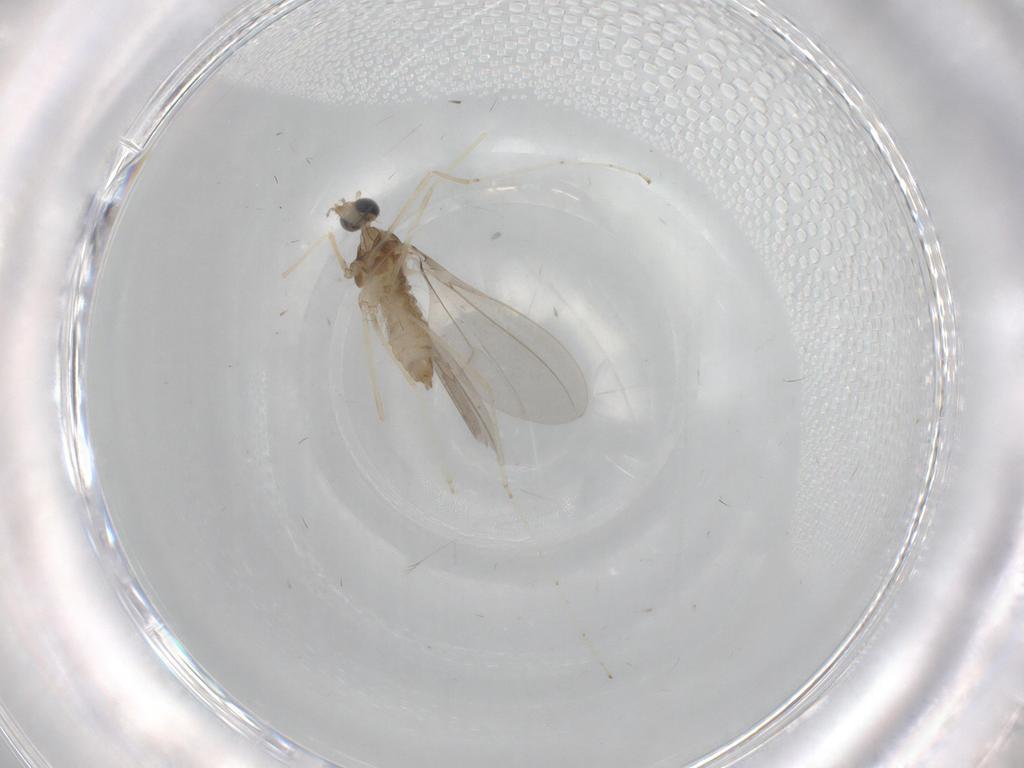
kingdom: Animalia
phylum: Arthropoda
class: Insecta
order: Diptera
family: Cecidomyiidae
